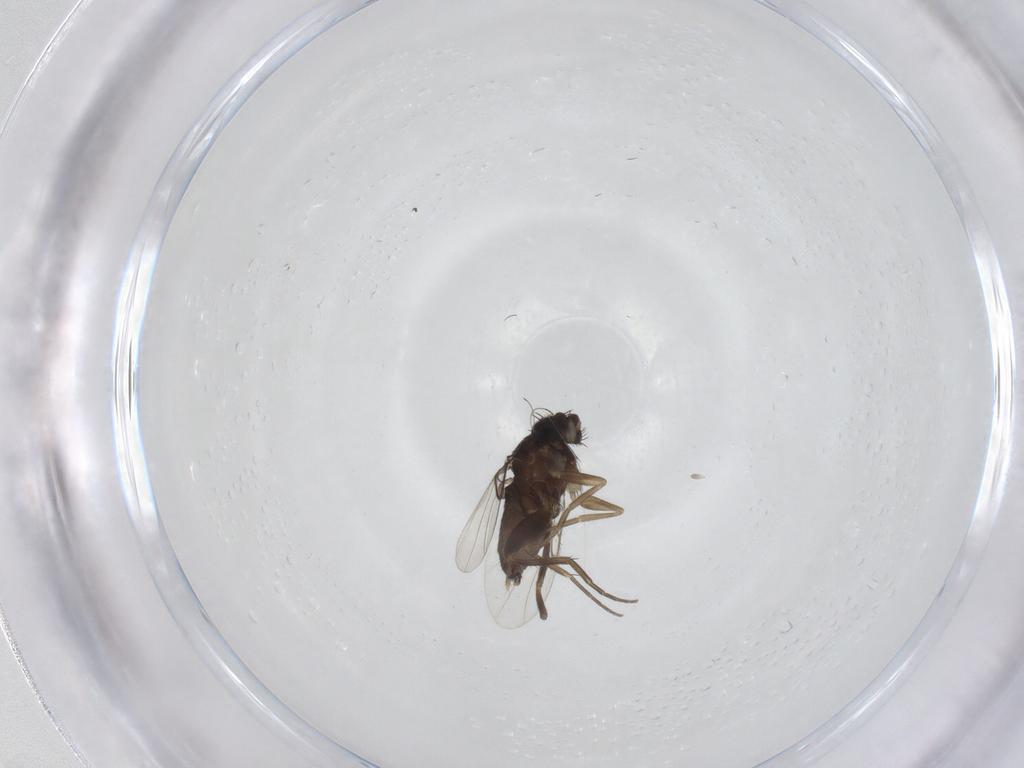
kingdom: Animalia
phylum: Arthropoda
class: Insecta
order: Diptera
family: Phoridae
